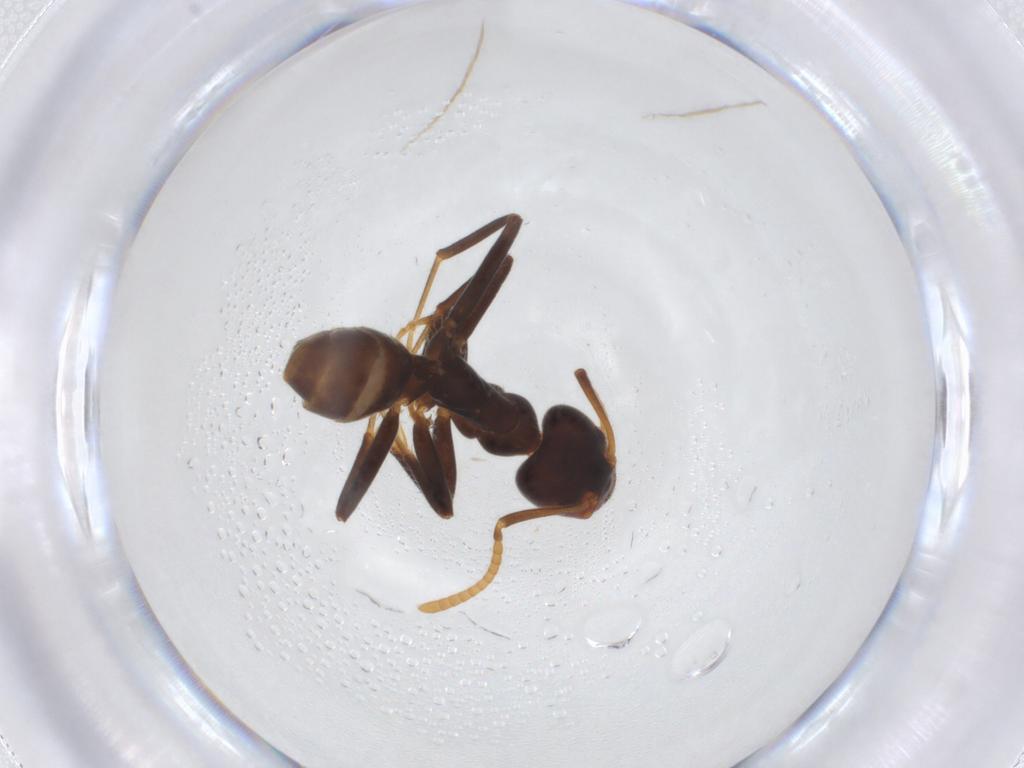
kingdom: Animalia
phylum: Arthropoda
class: Insecta
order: Hymenoptera
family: Formicidae
